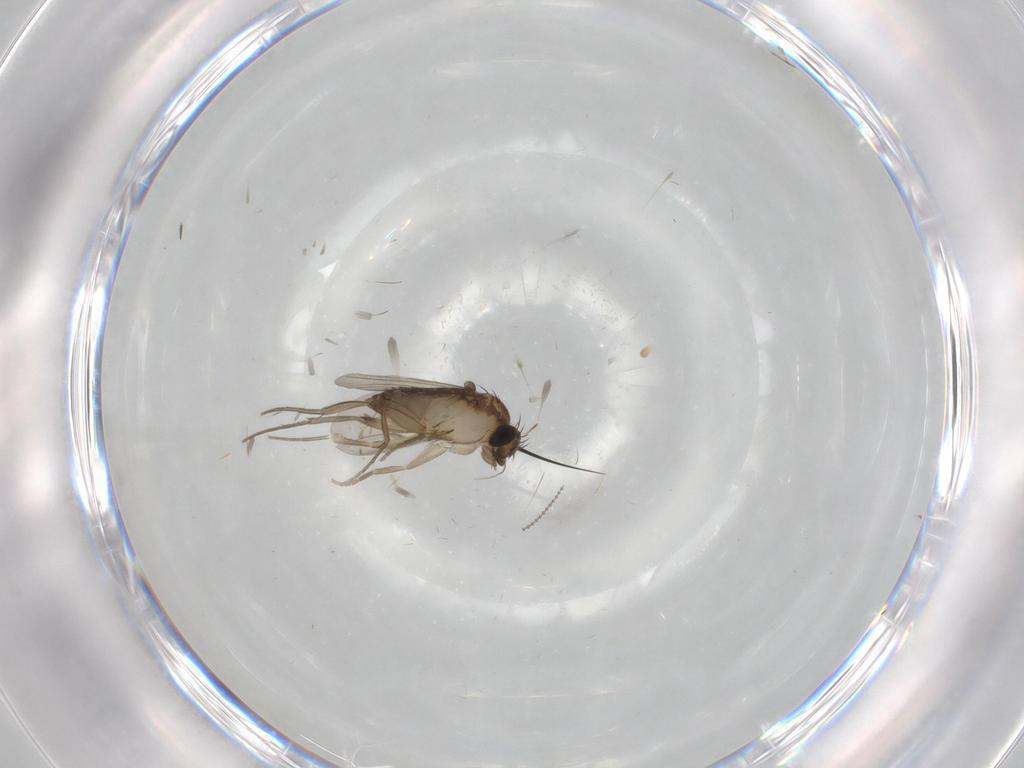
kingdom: Animalia
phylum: Arthropoda
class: Insecta
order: Diptera
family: Phoridae
